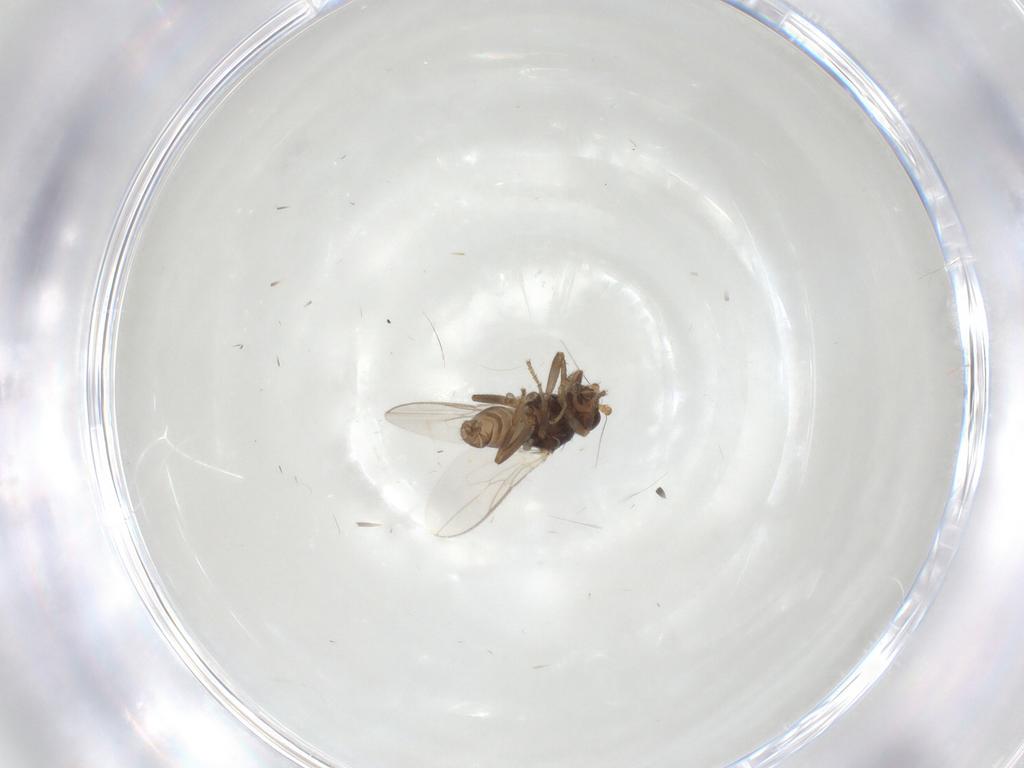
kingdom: Animalia
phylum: Arthropoda
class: Insecta
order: Diptera
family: Sphaeroceridae
